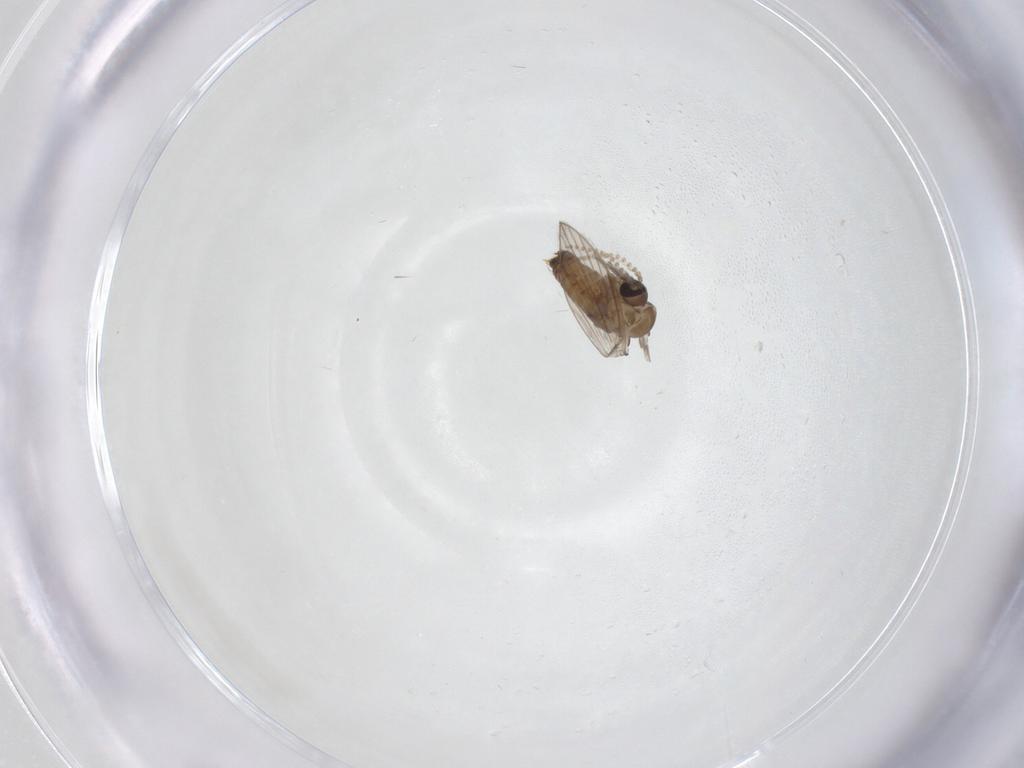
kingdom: Animalia
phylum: Arthropoda
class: Insecta
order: Diptera
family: Chironomidae
